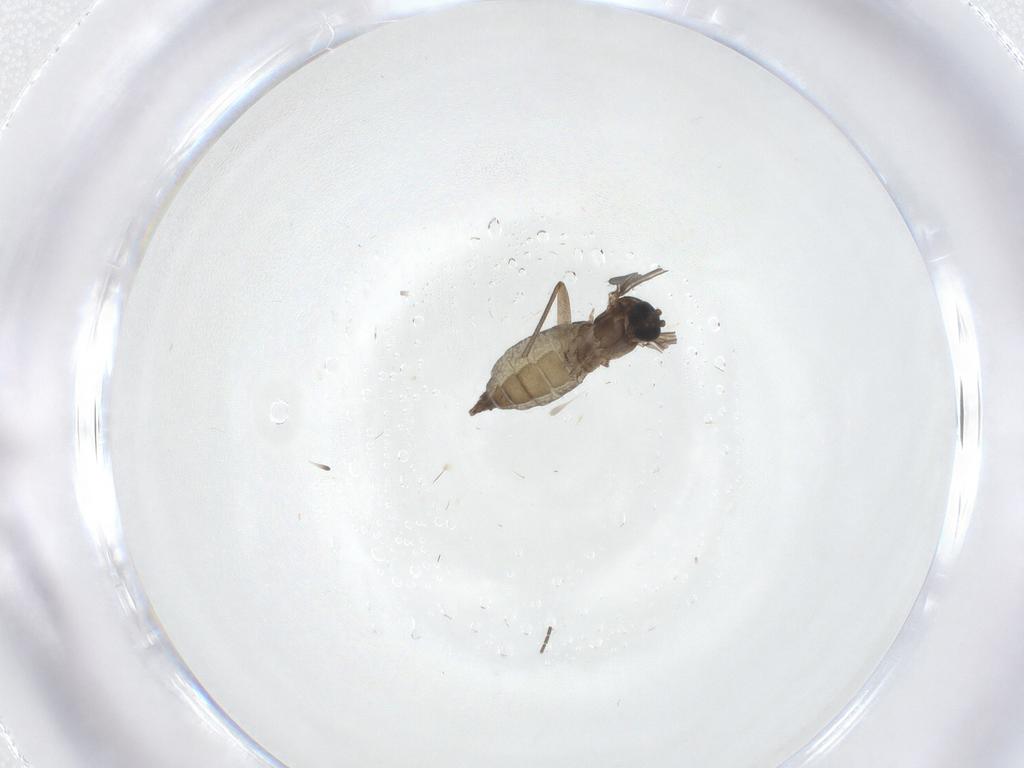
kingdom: Animalia
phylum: Arthropoda
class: Insecta
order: Diptera
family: Sciaridae
